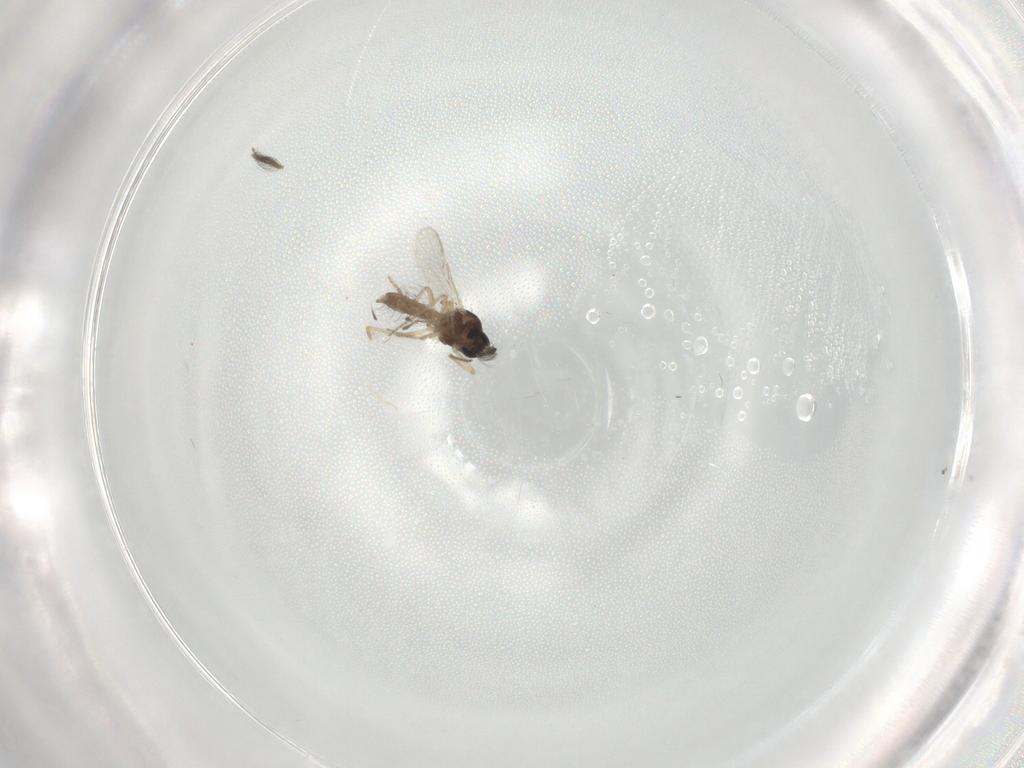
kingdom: Animalia
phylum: Arthropoda
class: Insecta
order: Diptera
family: Ceratopogonidae
